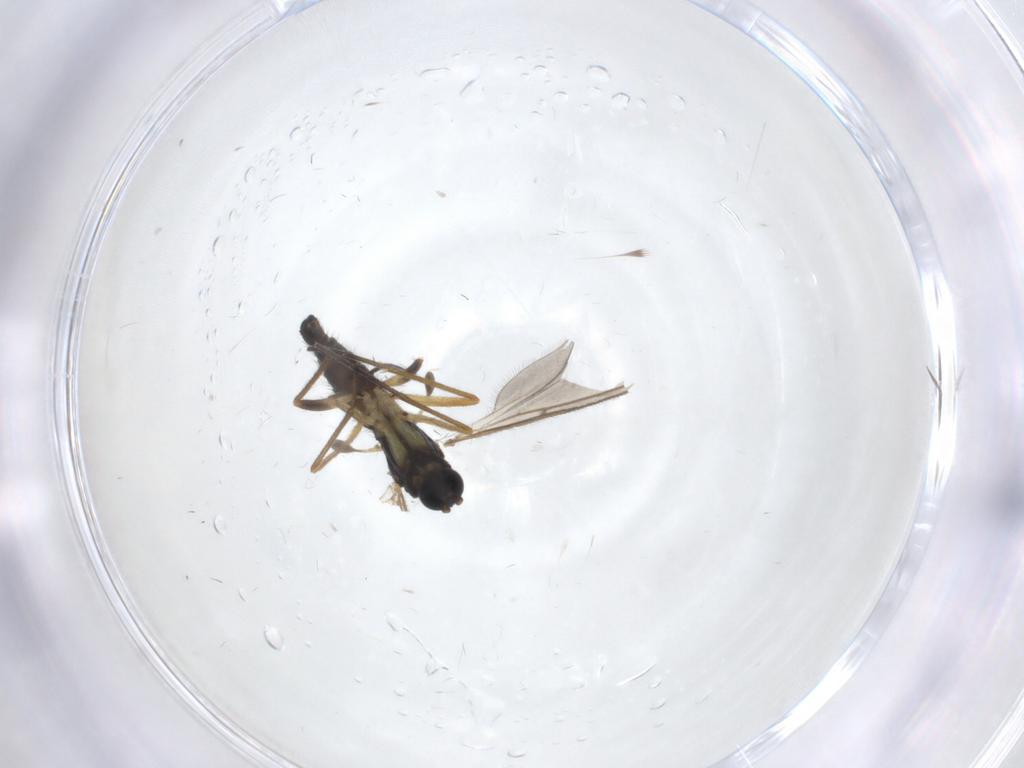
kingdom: Animalia
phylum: Arthropoda
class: Insecta
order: Diptera
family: Sciaridae
